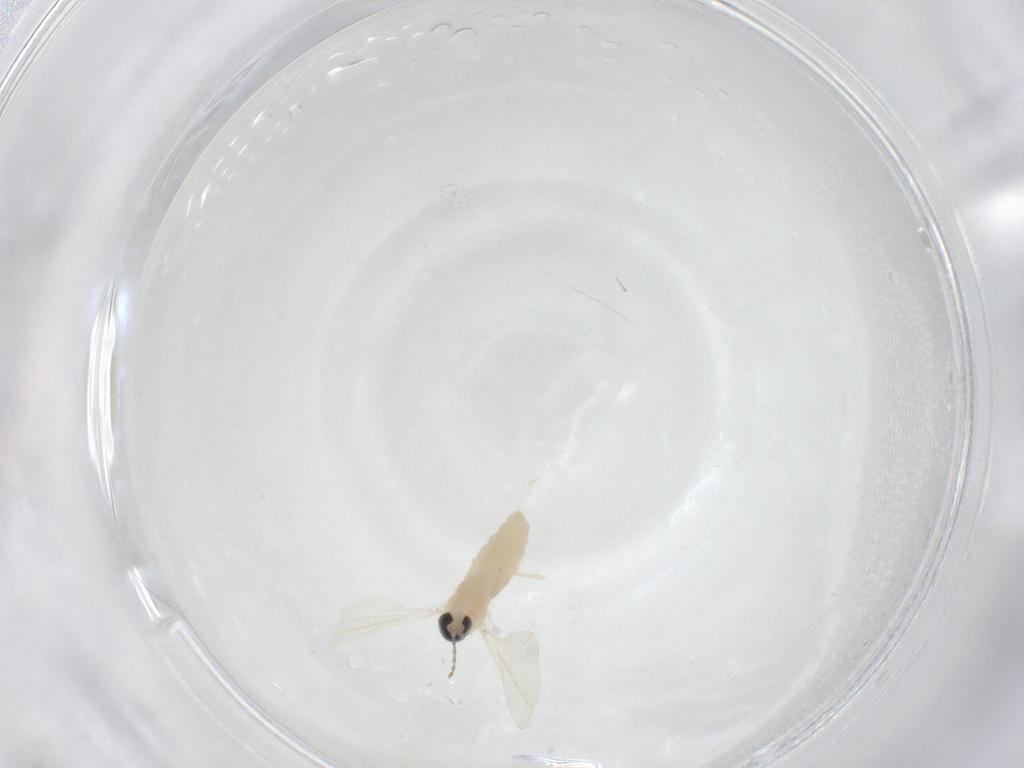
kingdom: Animalia
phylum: Arthropoda
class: Insecta
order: Diptera
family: Cecidomyiidae
